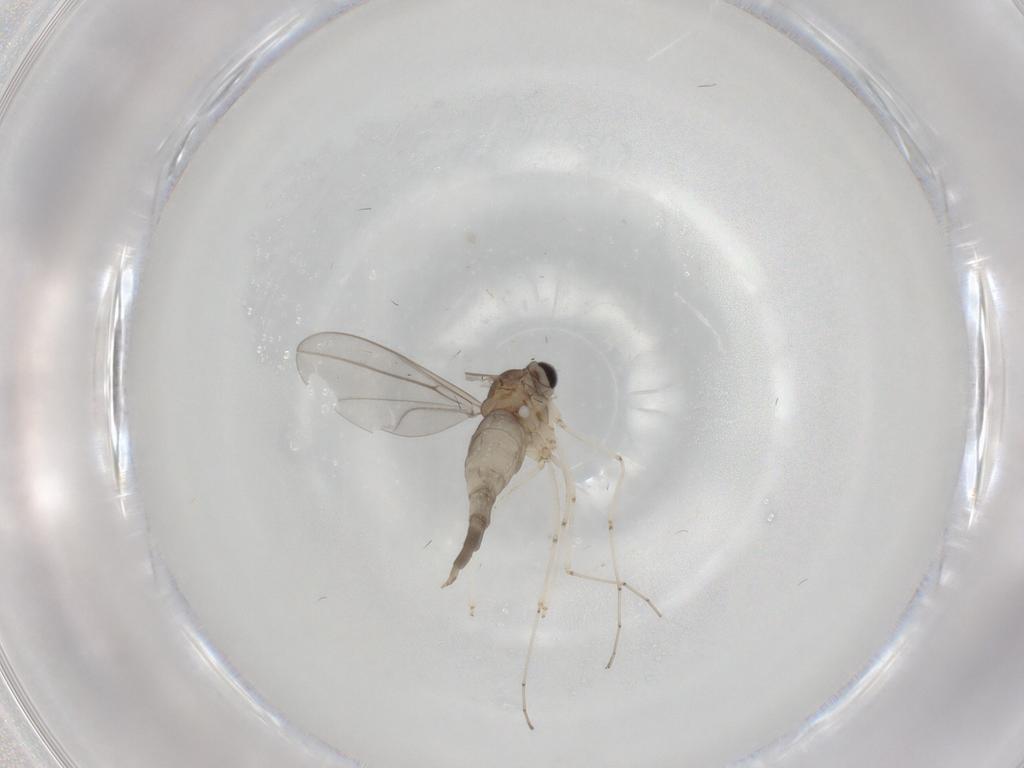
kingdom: Animalia
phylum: Arthropoda
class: Insecta
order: Diptera
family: Cecidomyiidae
